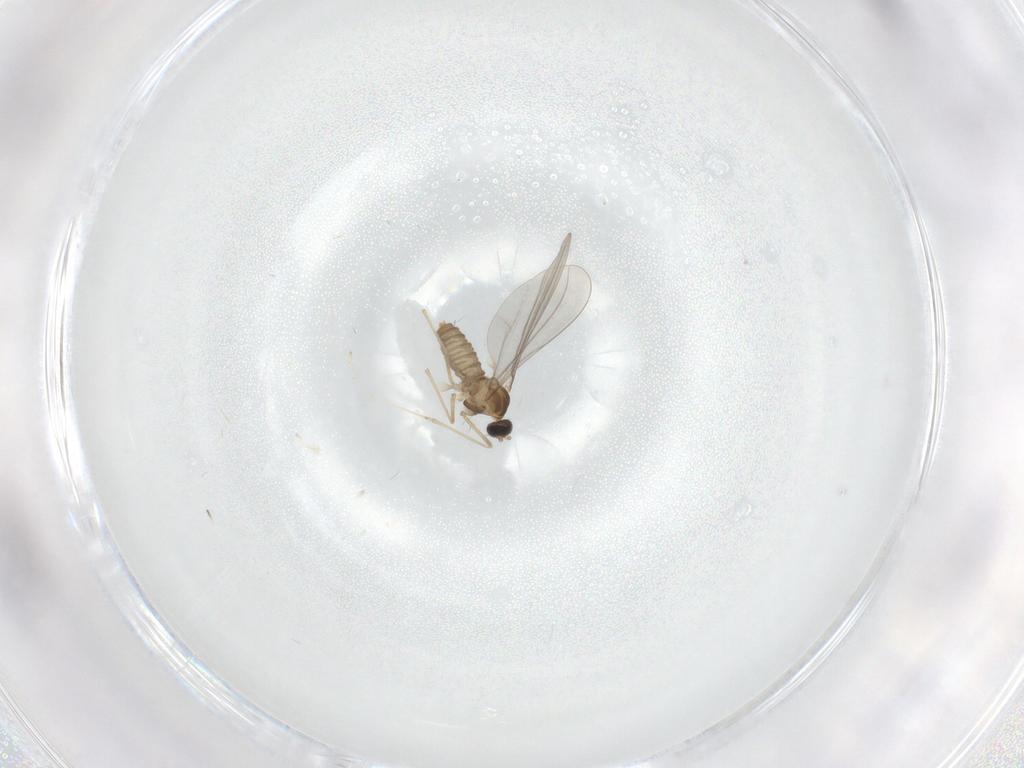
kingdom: Animalia
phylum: Arthropoda
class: Insecta
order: Diptera
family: Cecidomyiidae
